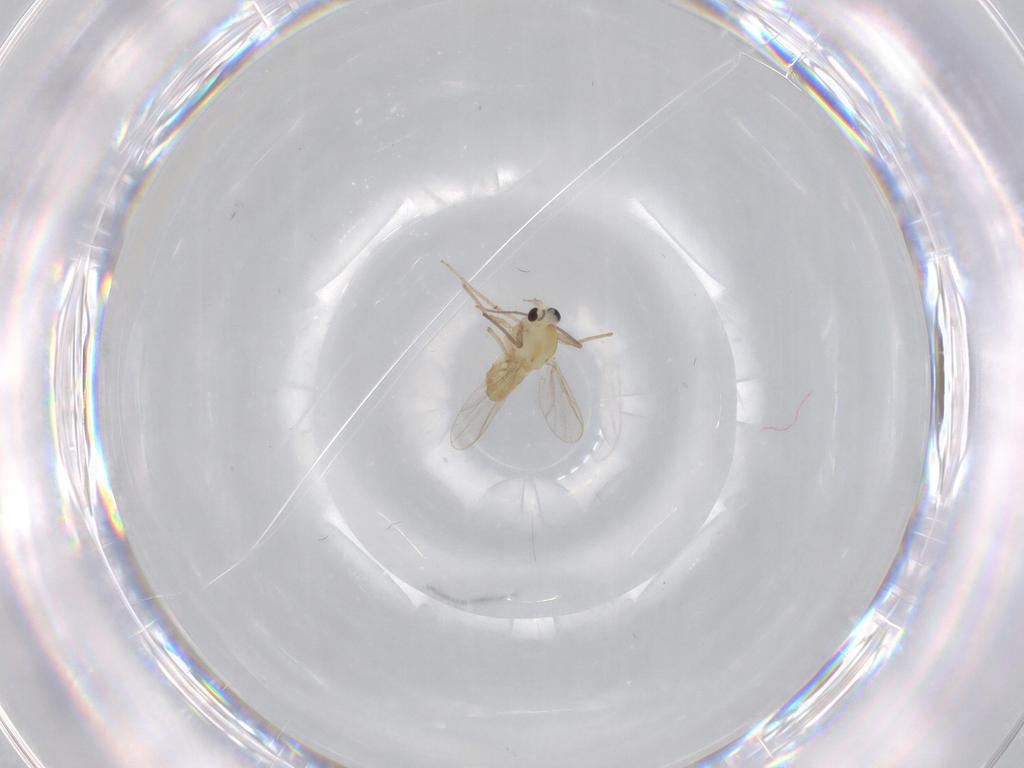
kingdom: Animalia
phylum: Arthropoda
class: Insecta
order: Diptera
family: Chironomidae
